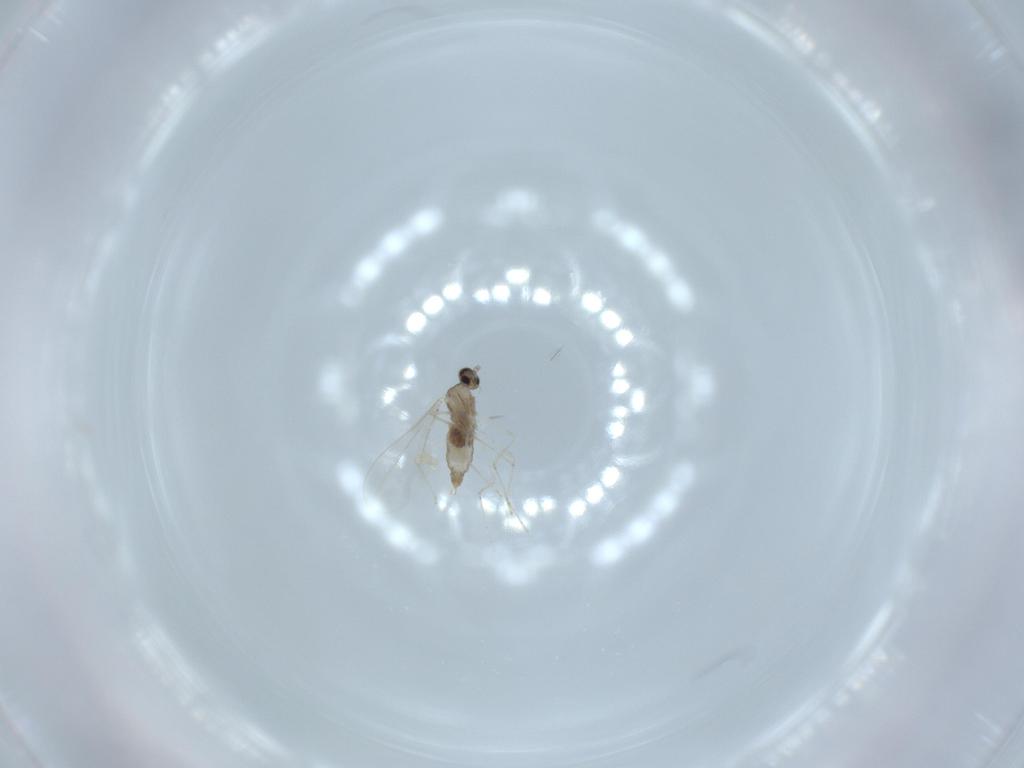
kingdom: Animalia
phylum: Arthropoda
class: Insecta
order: Diptera
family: Cecidomyiidae
